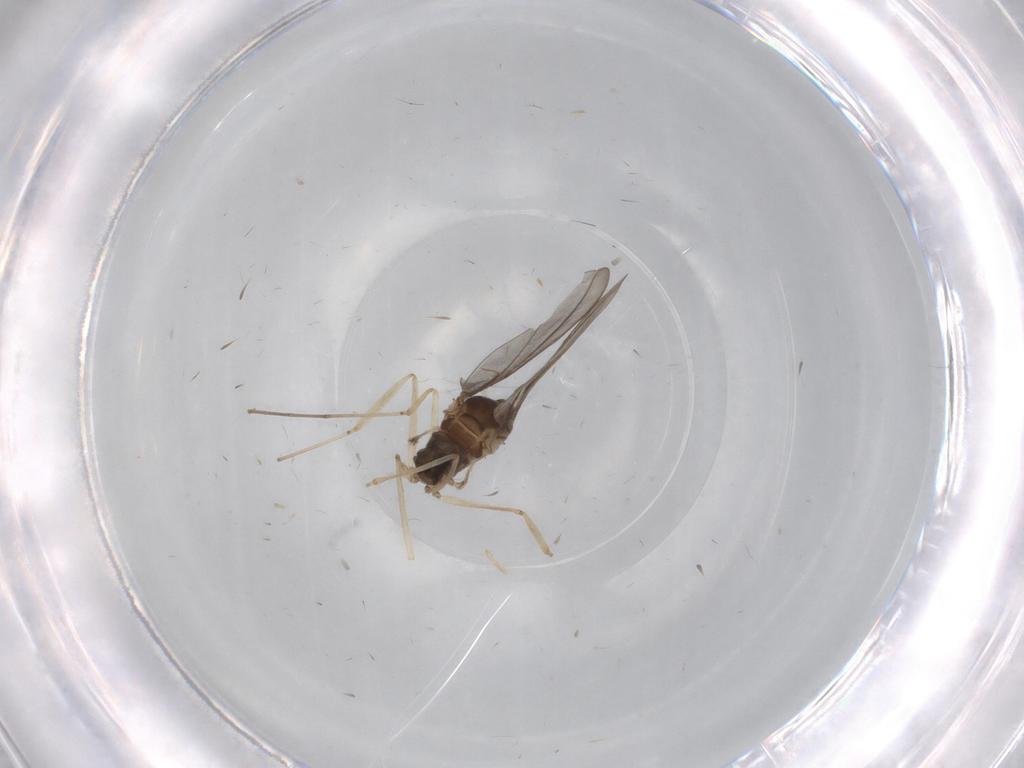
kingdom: Animalia
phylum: Arthropoda
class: Insecta
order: Diptera
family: Cecidomyiidae
